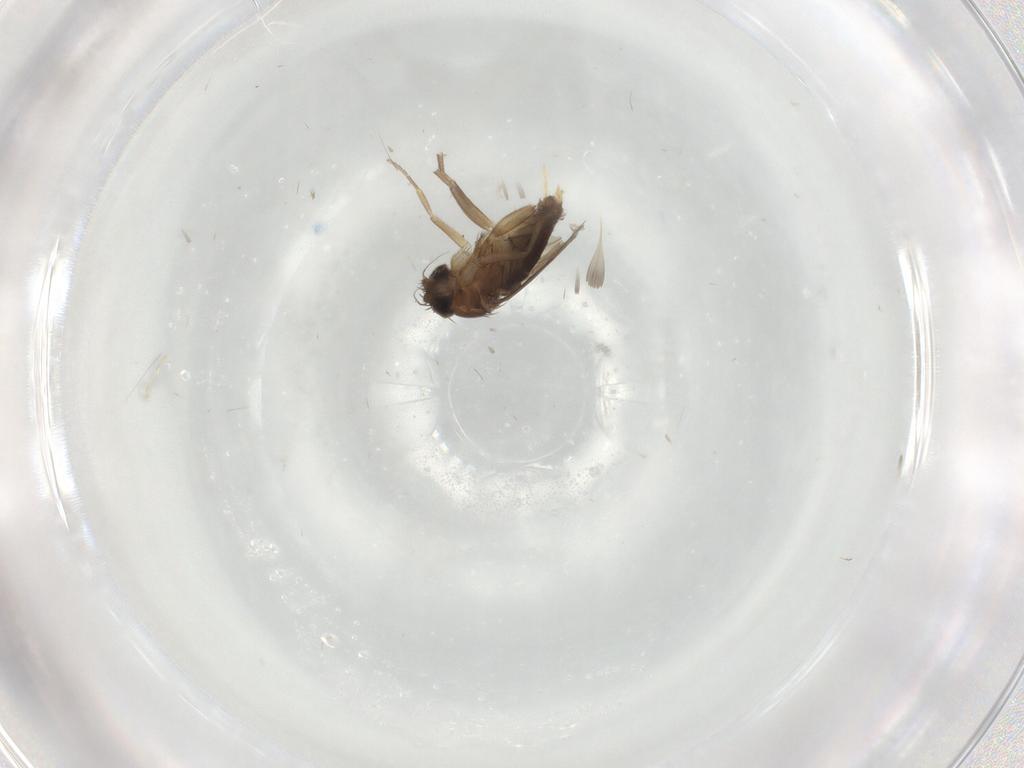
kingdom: Animalia
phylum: Arthropoda
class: Insecta
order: Diptera
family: Phoridae
